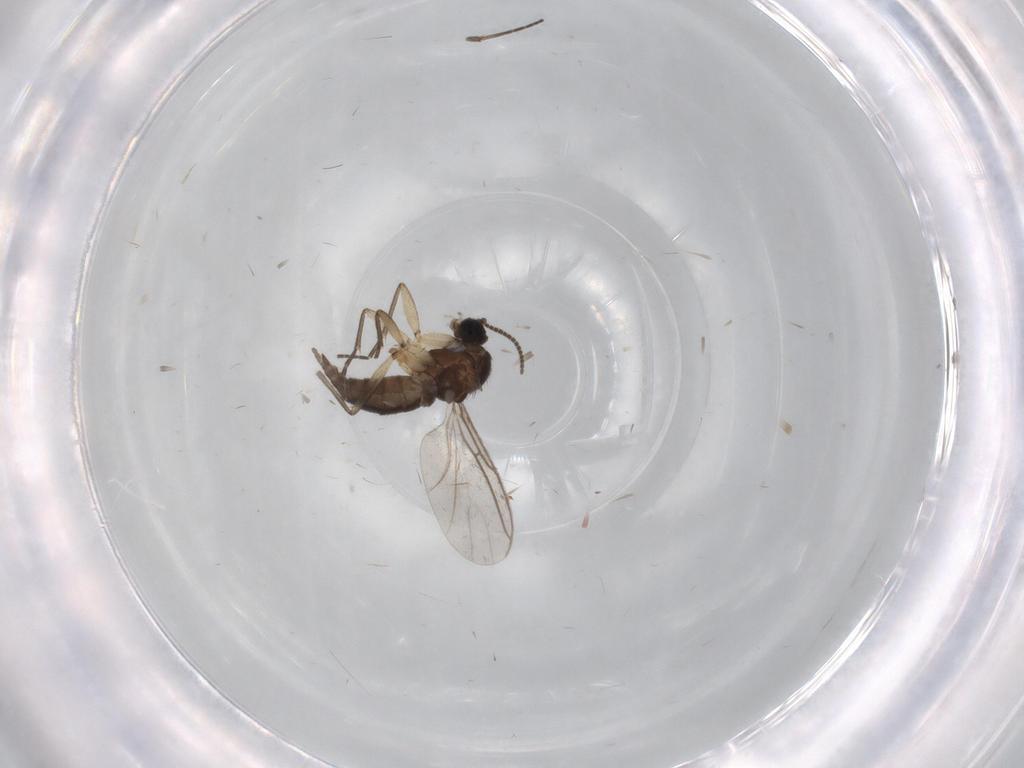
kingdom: Animalia
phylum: Arthropoda
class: Insecta
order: Diptera
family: Sciaridae
